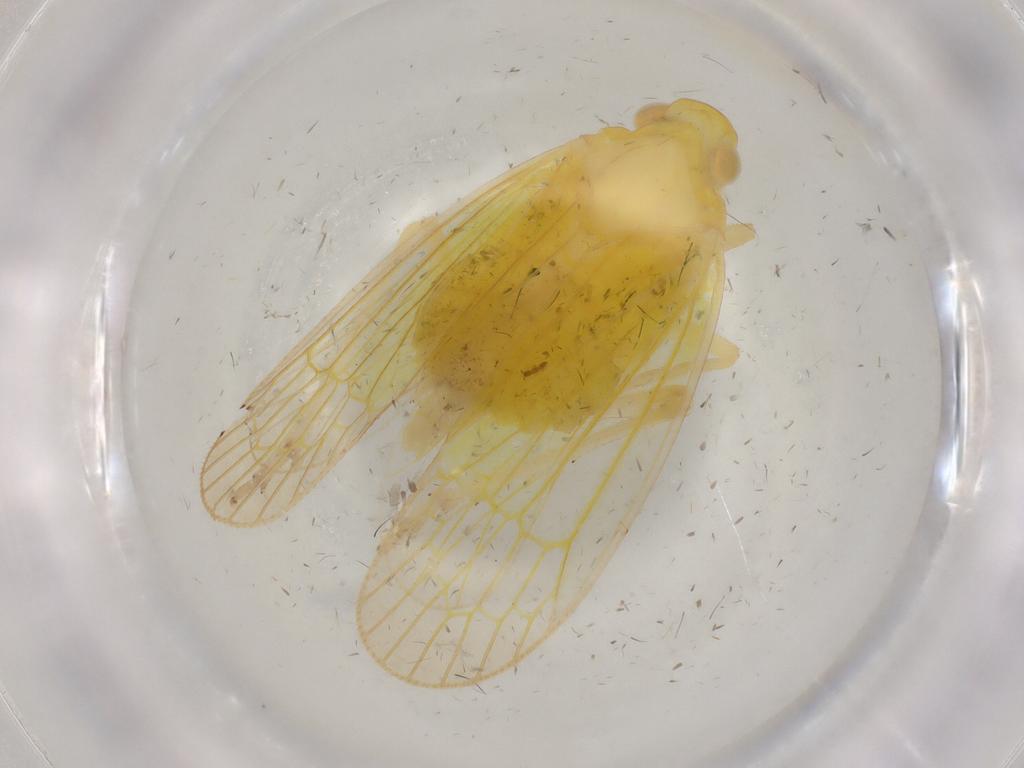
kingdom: Animalia
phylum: Arthropoda
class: Insecta
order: Hemiptera
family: Tropiduchidae
